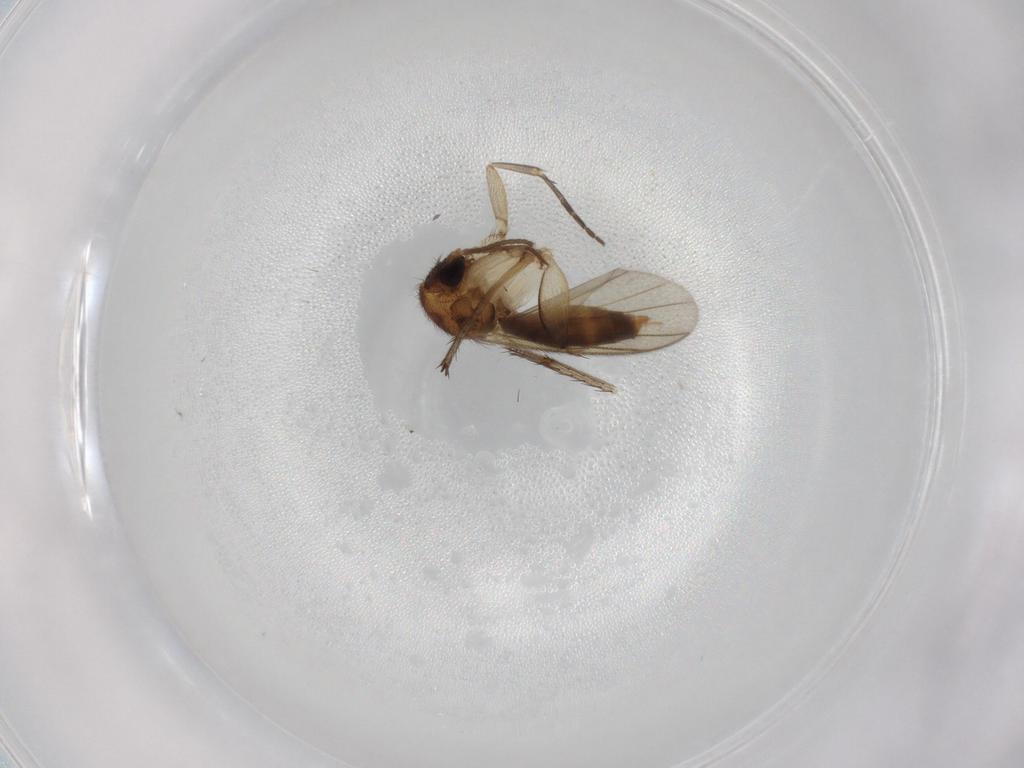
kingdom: Animalia
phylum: Arthropoda
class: Insecta
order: Diptera
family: Mycetophilidae
